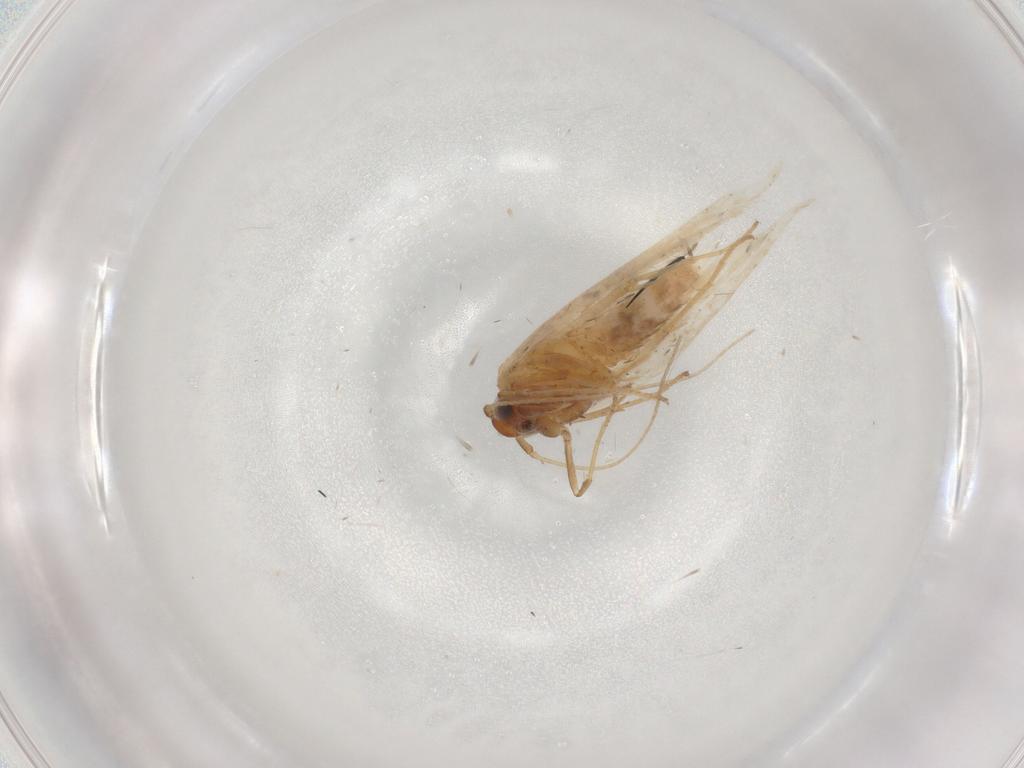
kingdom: Animalia
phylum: Arthropoda
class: Insecta
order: Lepidoptera
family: Gelechiidae
